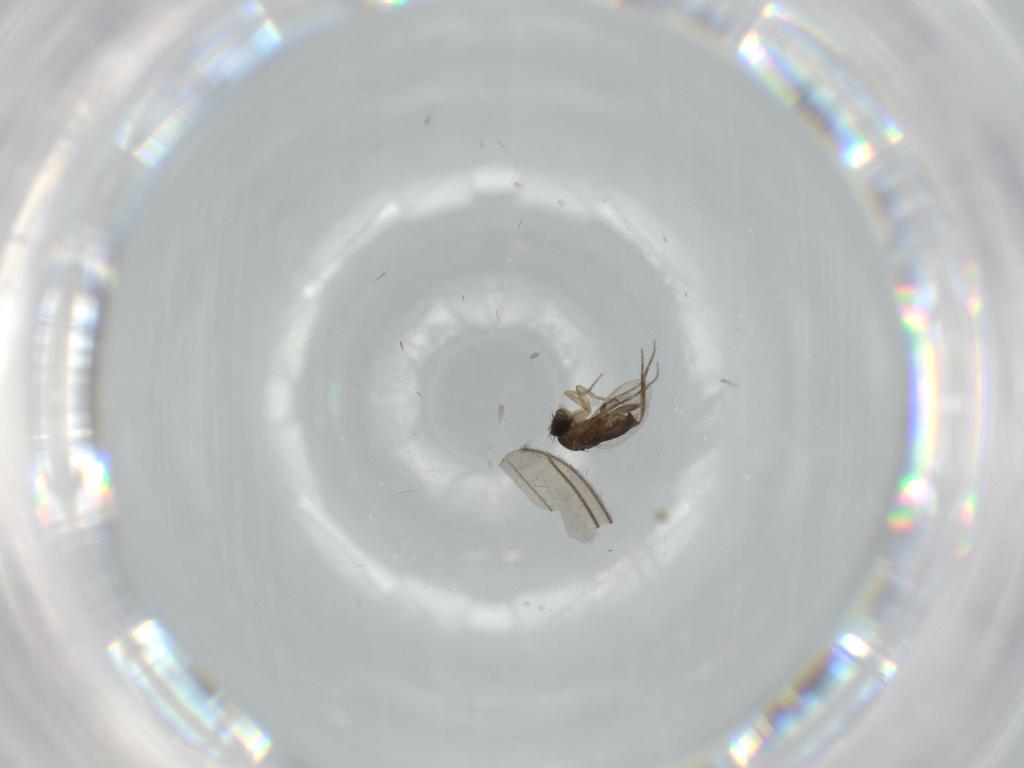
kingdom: Animalia
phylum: Arthropoda
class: Insecta
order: Diptera
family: Phoridae
